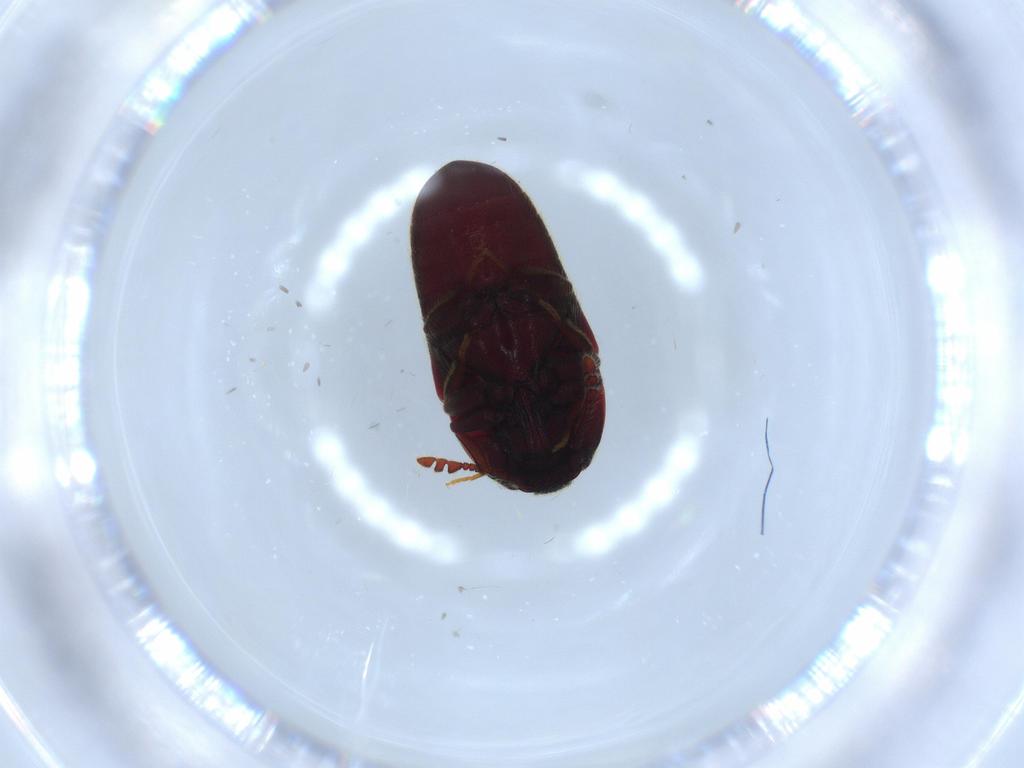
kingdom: Animalia
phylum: Arthropoda
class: Insecta
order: Coleoptera
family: Throscidae
